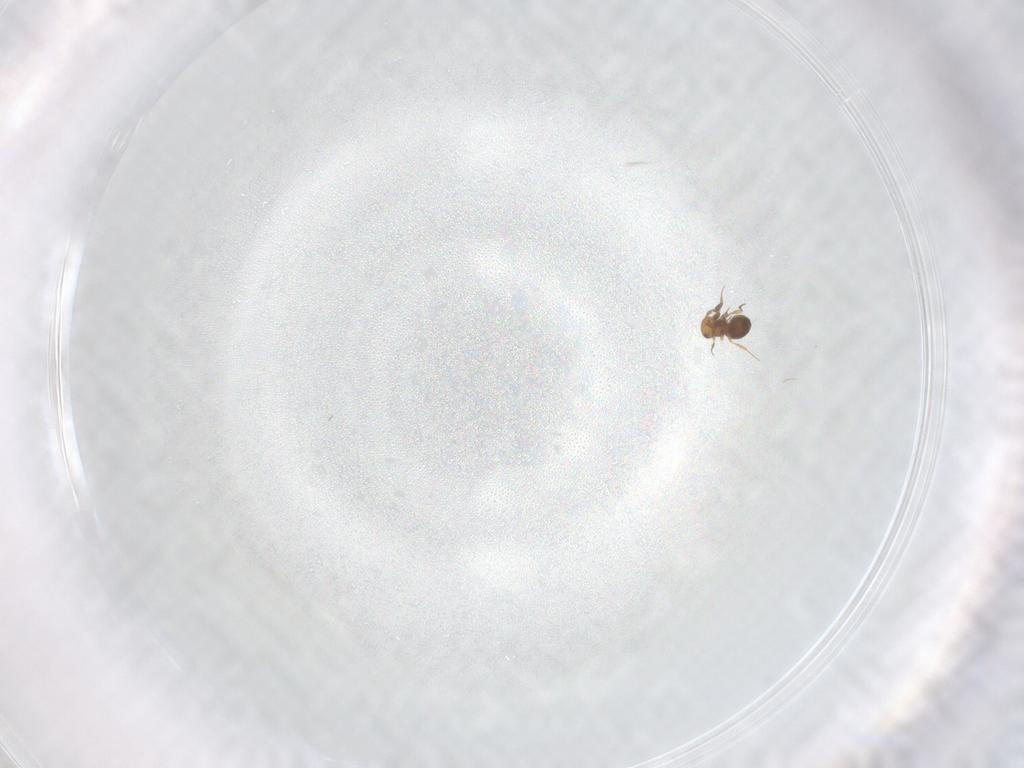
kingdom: Animalia
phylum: Arthropoda
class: Insecta
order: Hymenoptera
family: Platygastridae
